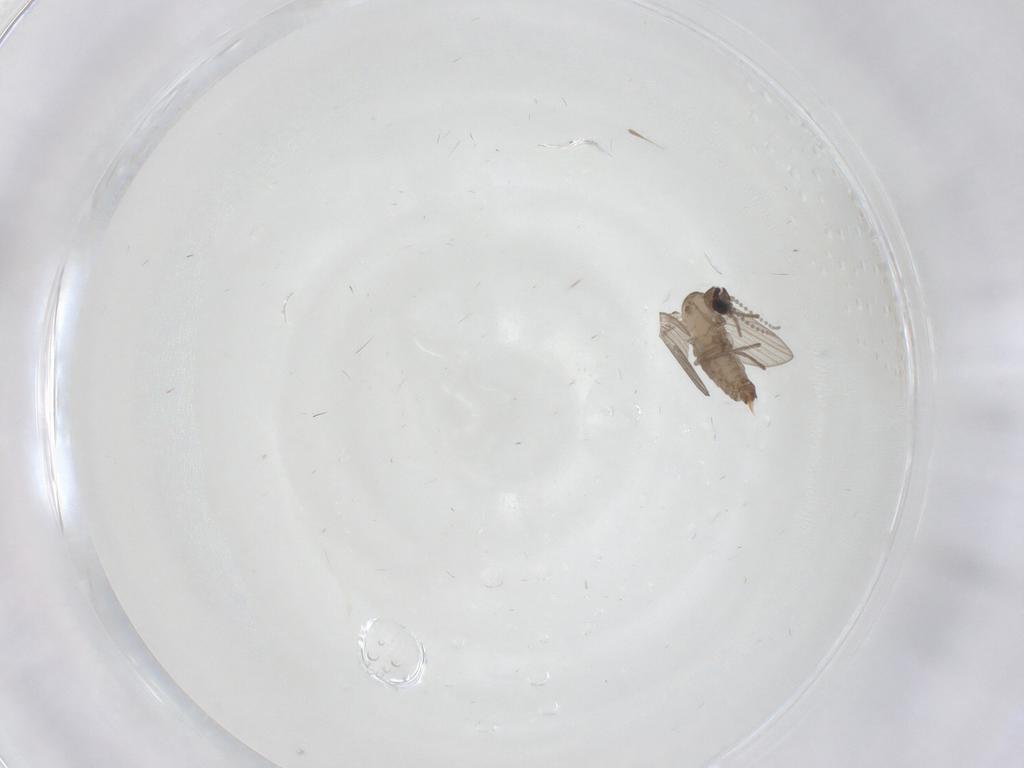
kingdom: Animalia
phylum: Arthropoda
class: Insecta
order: Diptera
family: Psychodidae
